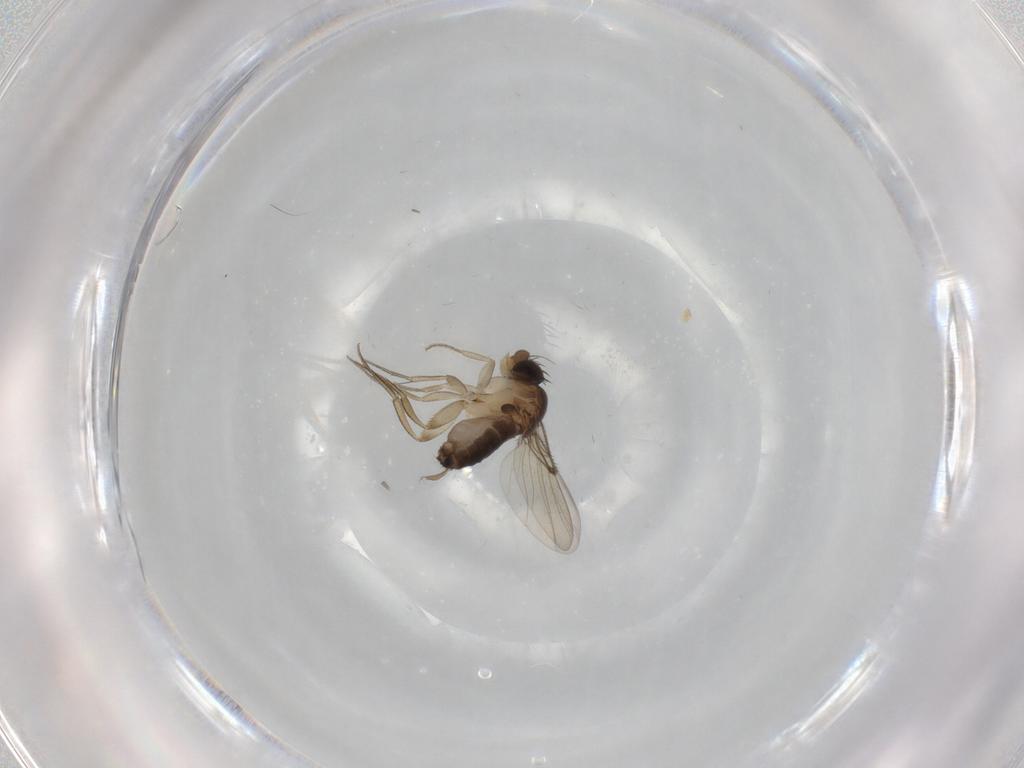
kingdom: Animalia
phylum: Arthropoda
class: Insecta
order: Diptera
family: Phoridae
